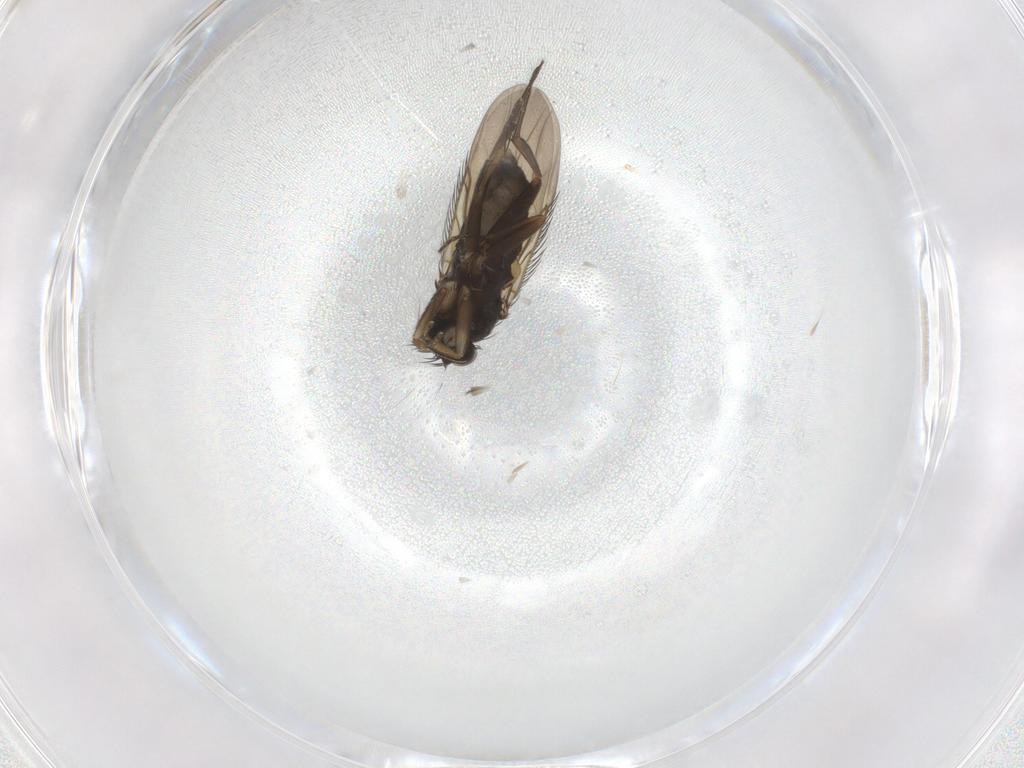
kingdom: Animalia
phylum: Arthropoda
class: Insecta
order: Diptera
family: Phoridae
